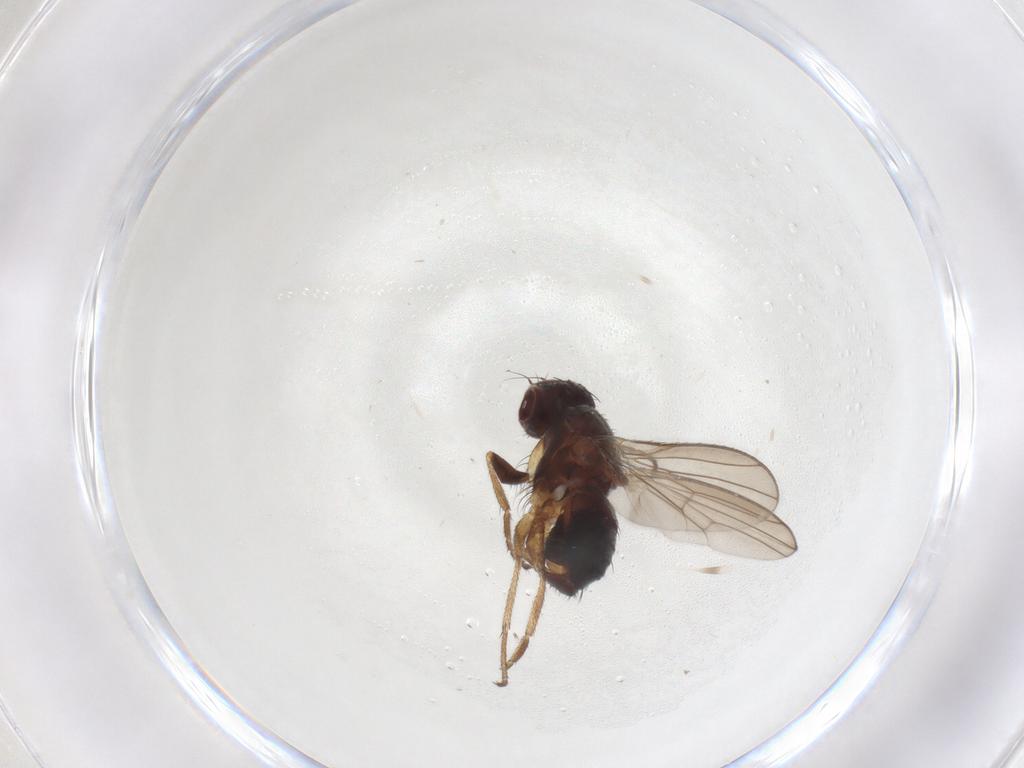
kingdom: Animalia
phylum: Arthropoda
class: Insecta
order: Diptera
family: Heleomyzidae
